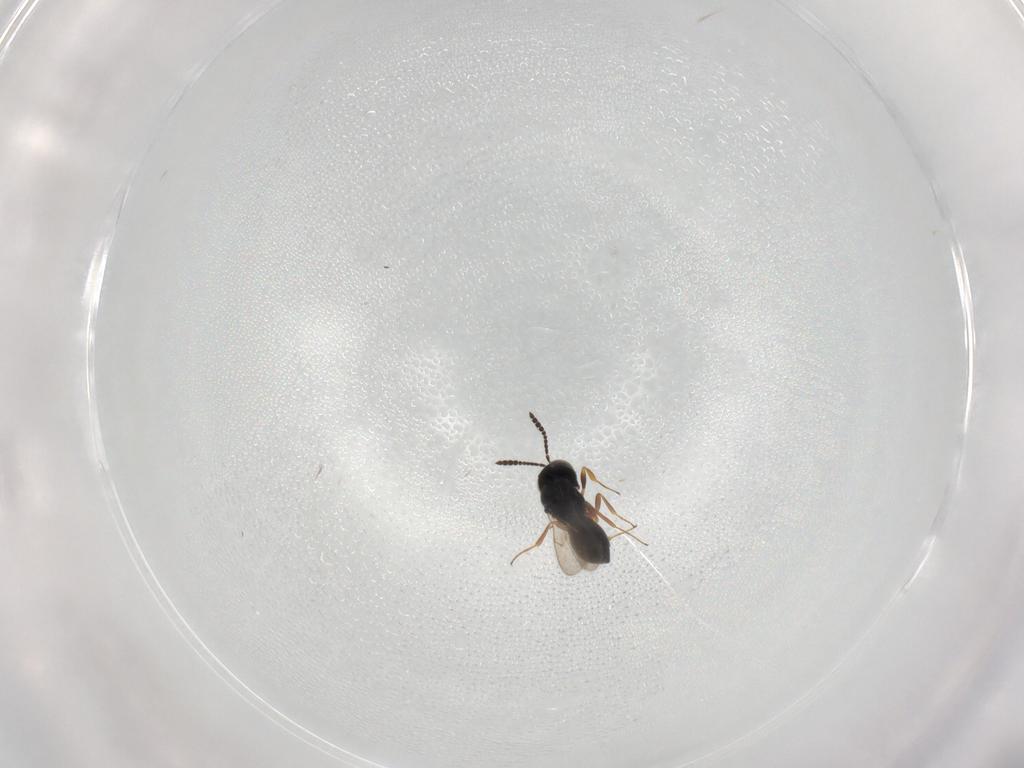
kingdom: Animalia
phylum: Arthropoda
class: Insecta
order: Hymenoptera
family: Scelionidae
